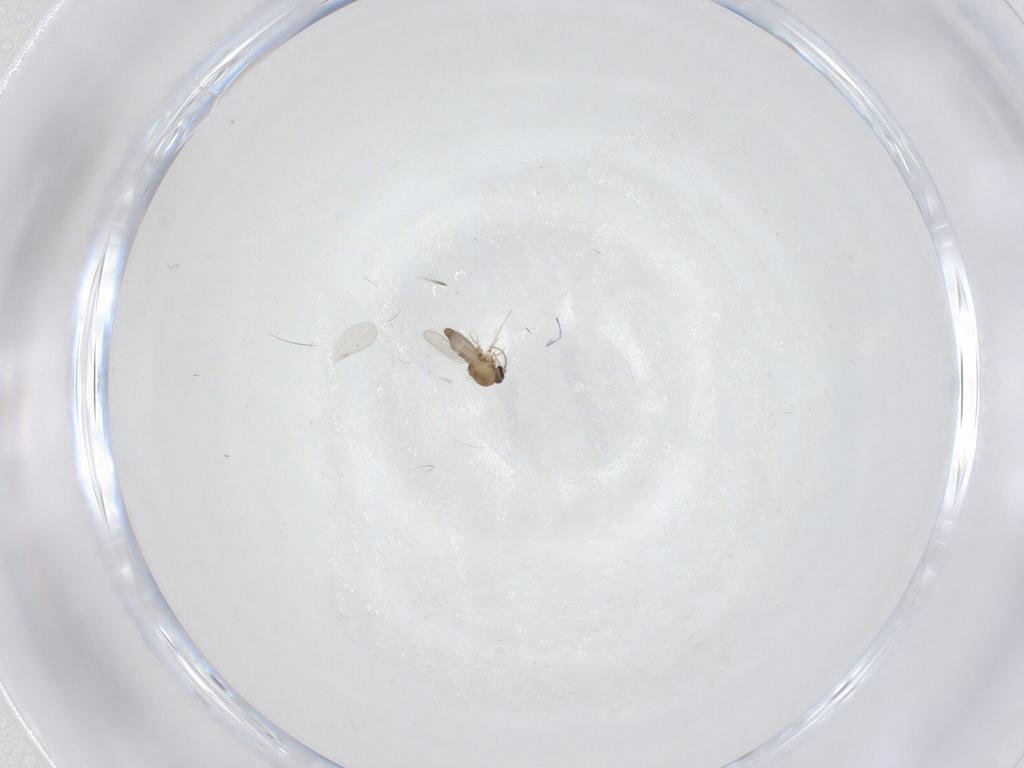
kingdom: Animalia
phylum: Arthropoda
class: Insecta
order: Diptera
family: Ceratopogonidae
